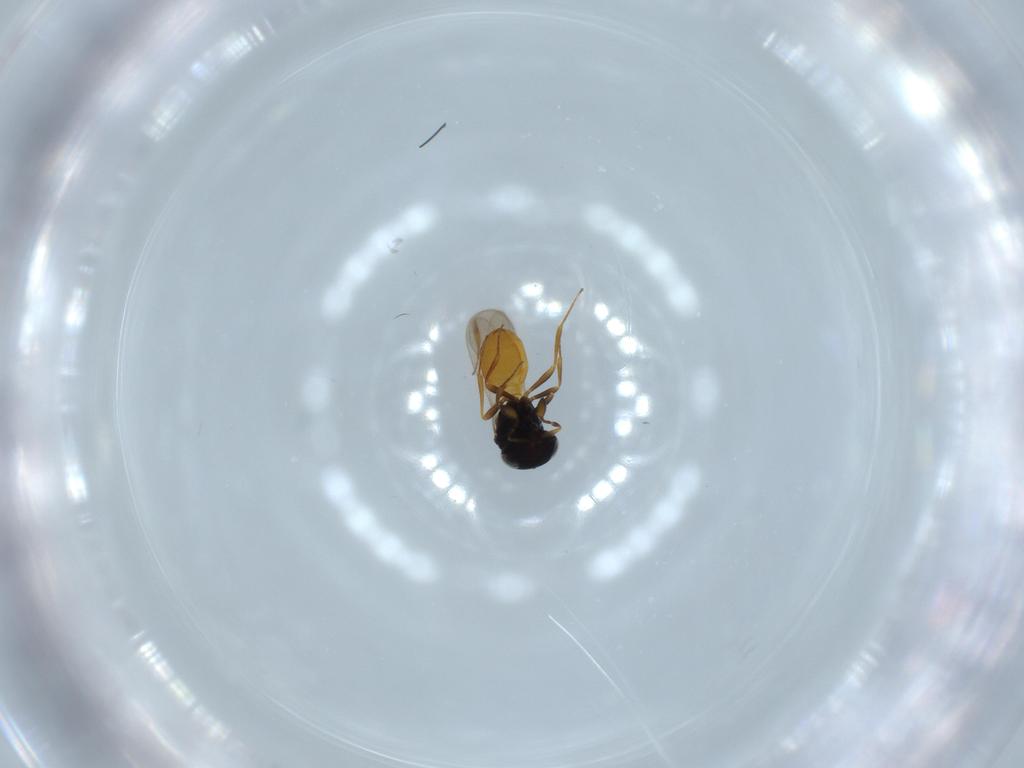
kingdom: Animalia
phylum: Arthropoda
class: Insecta
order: Hymenoptera
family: Scelionidae
